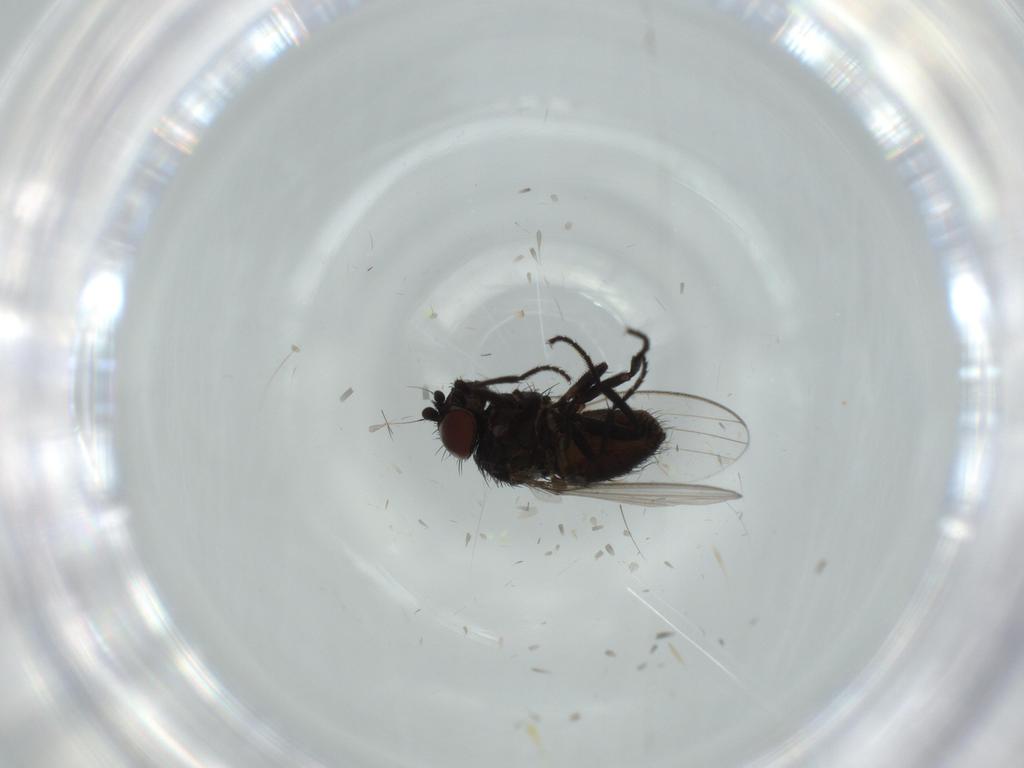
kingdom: Animalia
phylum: Arthropoda
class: Insecta
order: Diptera
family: Milichiidae
